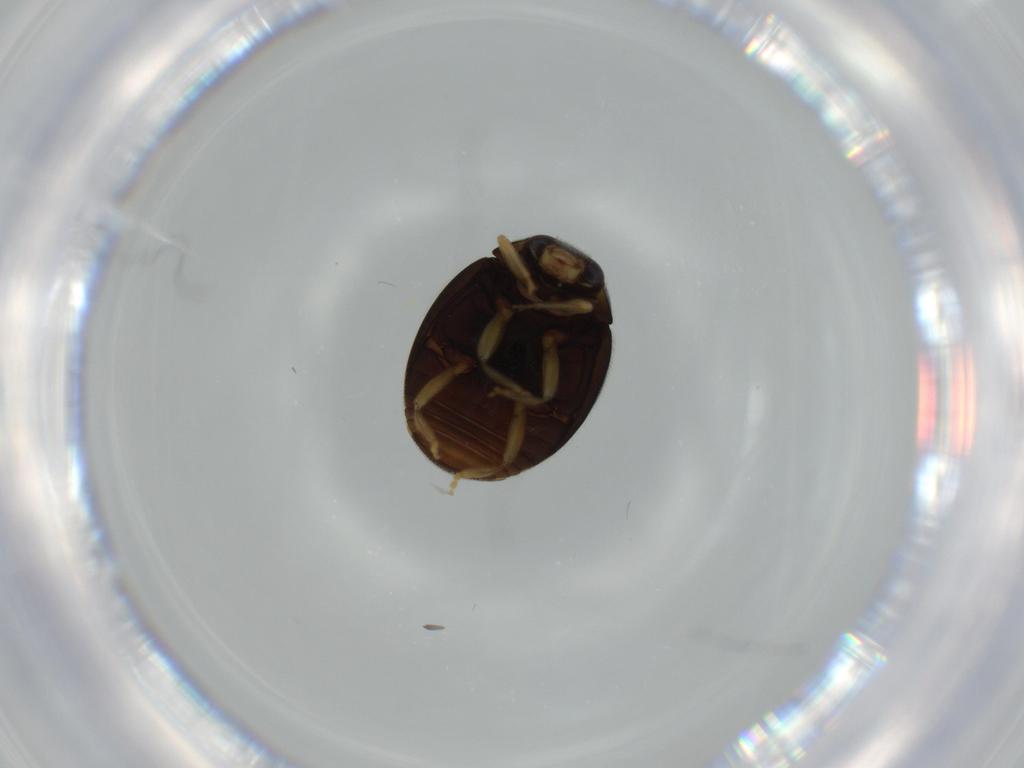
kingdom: Animalia
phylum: Arthropoda
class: Insecta
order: Coleoptera
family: Coccinellidae
